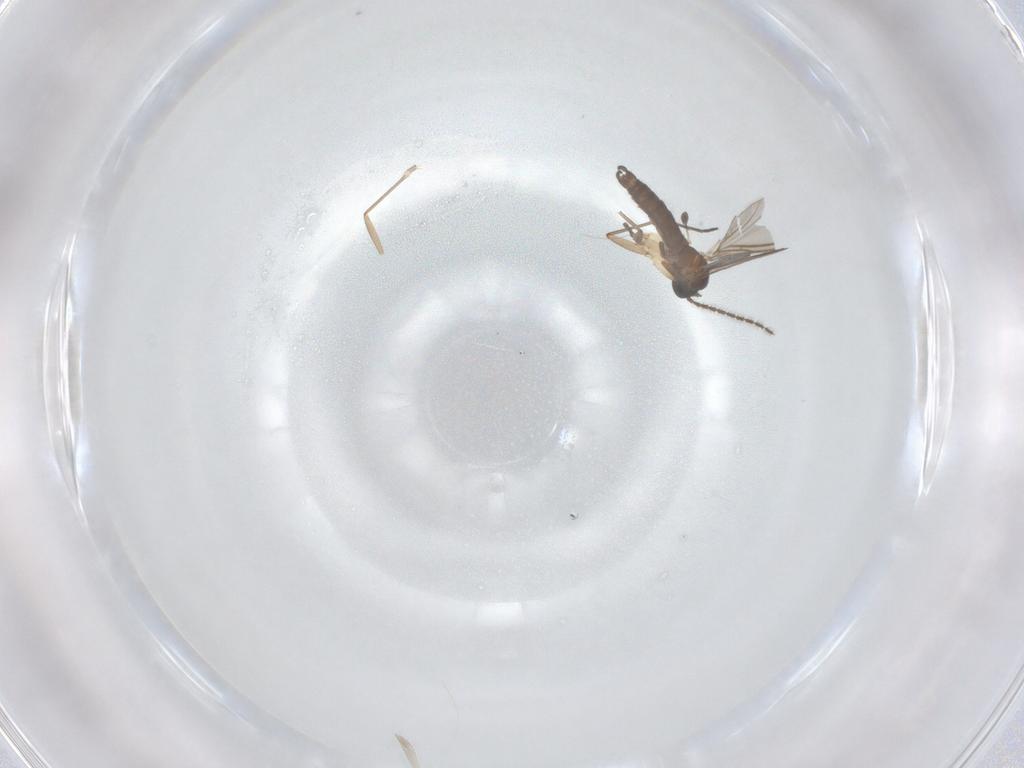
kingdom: Animalia
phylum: Arthropoda
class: Insecta
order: Diptera
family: Sciaridae
